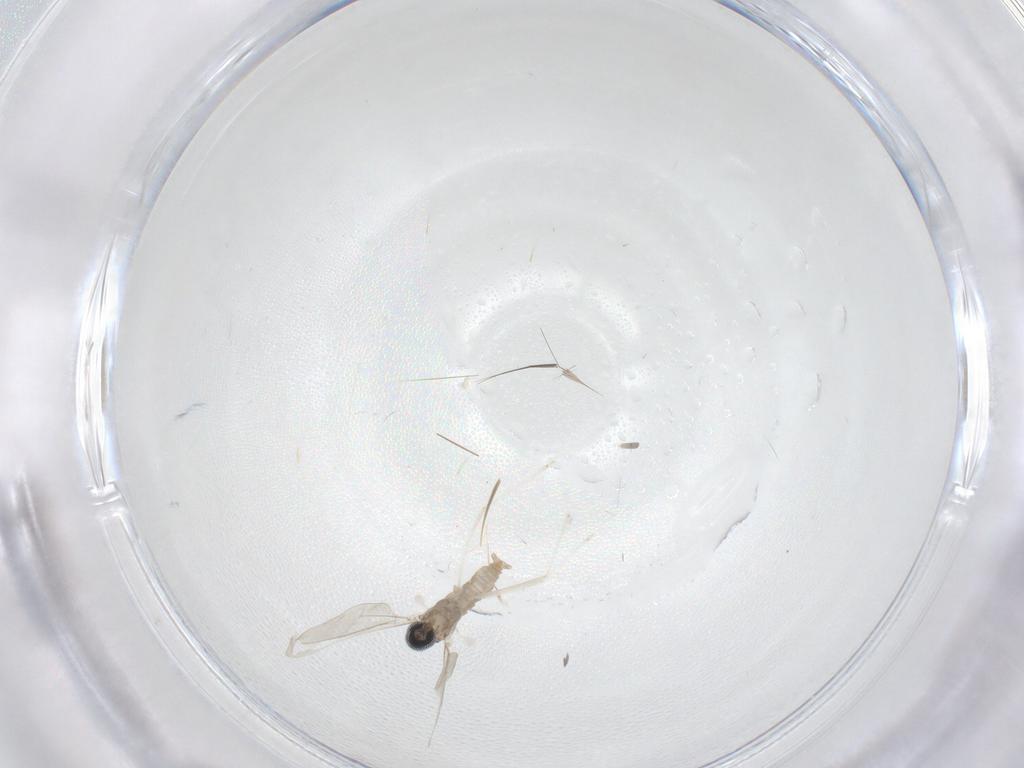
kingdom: Animalia
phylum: Arthropoda
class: Insecta
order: Diptera
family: Cecidomyiidae
